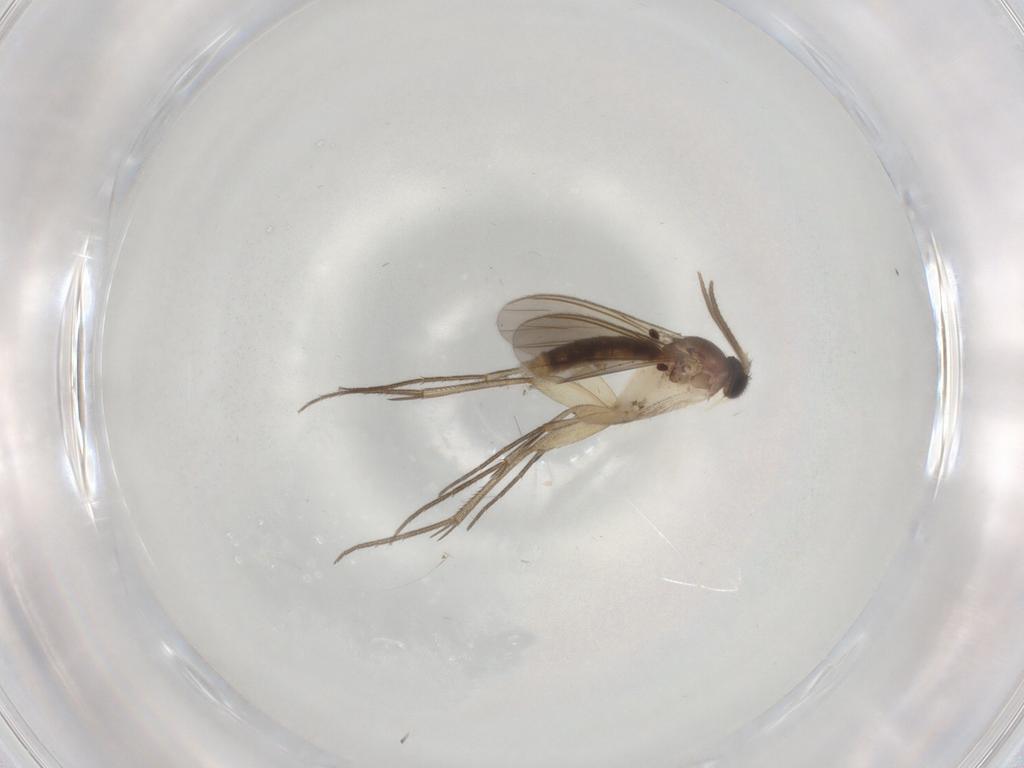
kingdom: Animalia
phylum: Arthropoda
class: Insecta
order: Diptera
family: Mycetophilidae
